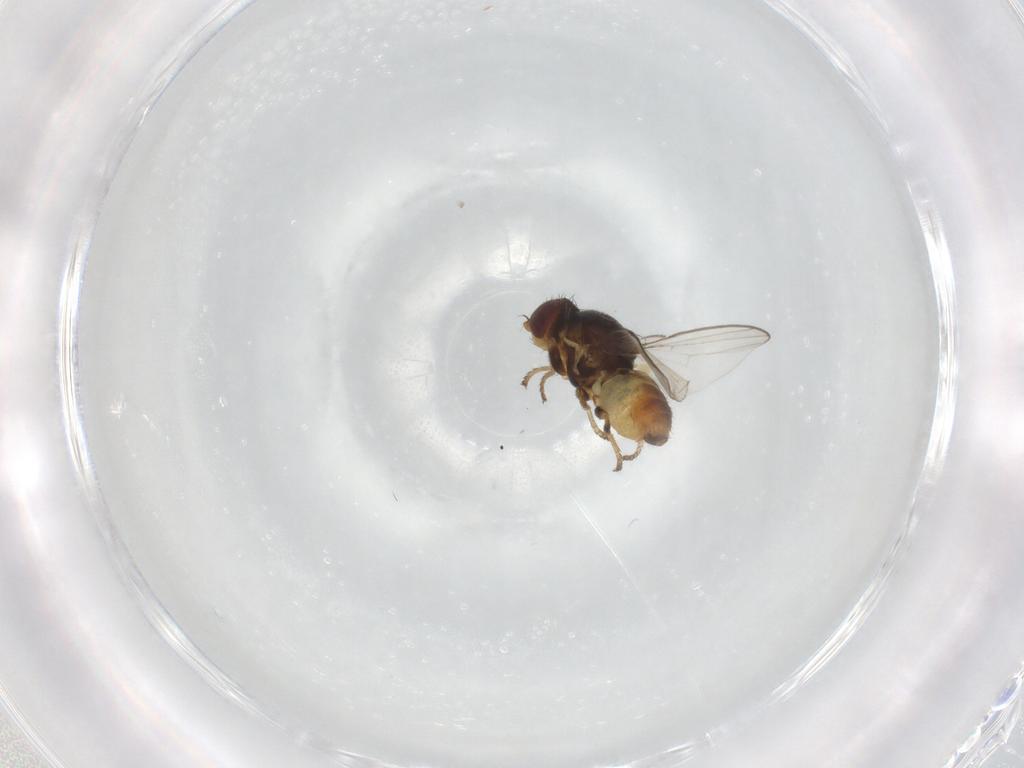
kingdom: Animalia
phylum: Arthropoda
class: Insecta
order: Diptera
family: Chloropidae
